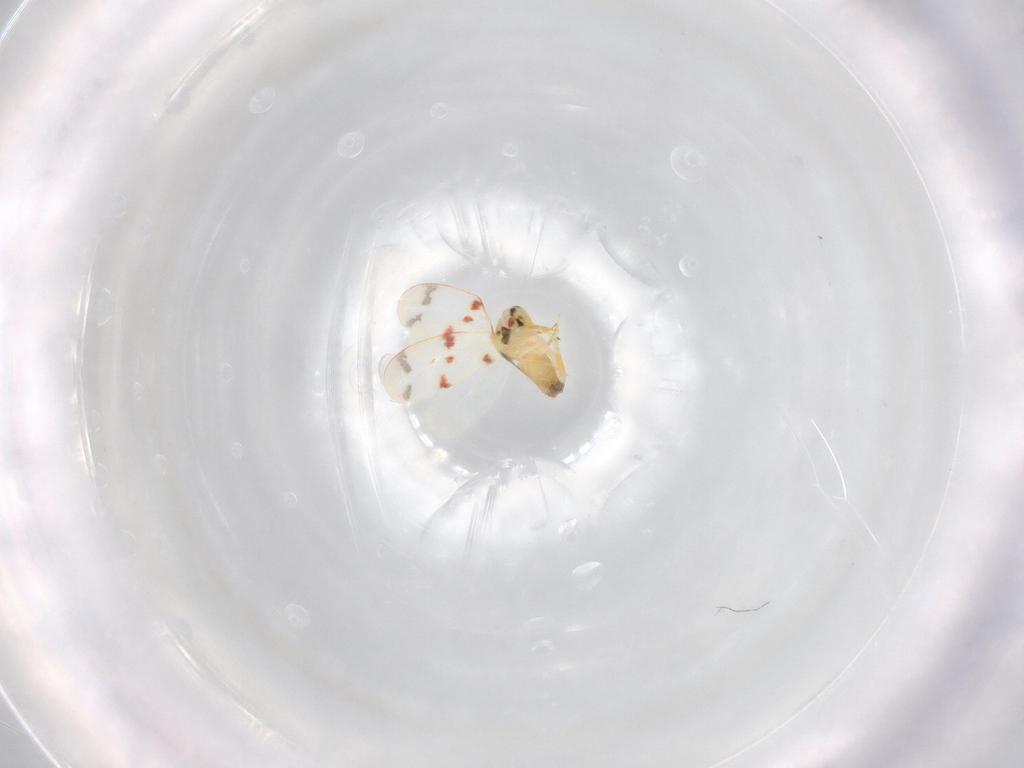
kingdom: Animalia
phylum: Arthropoda
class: Insecta
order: Hemiptera
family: Aleyrodidae
